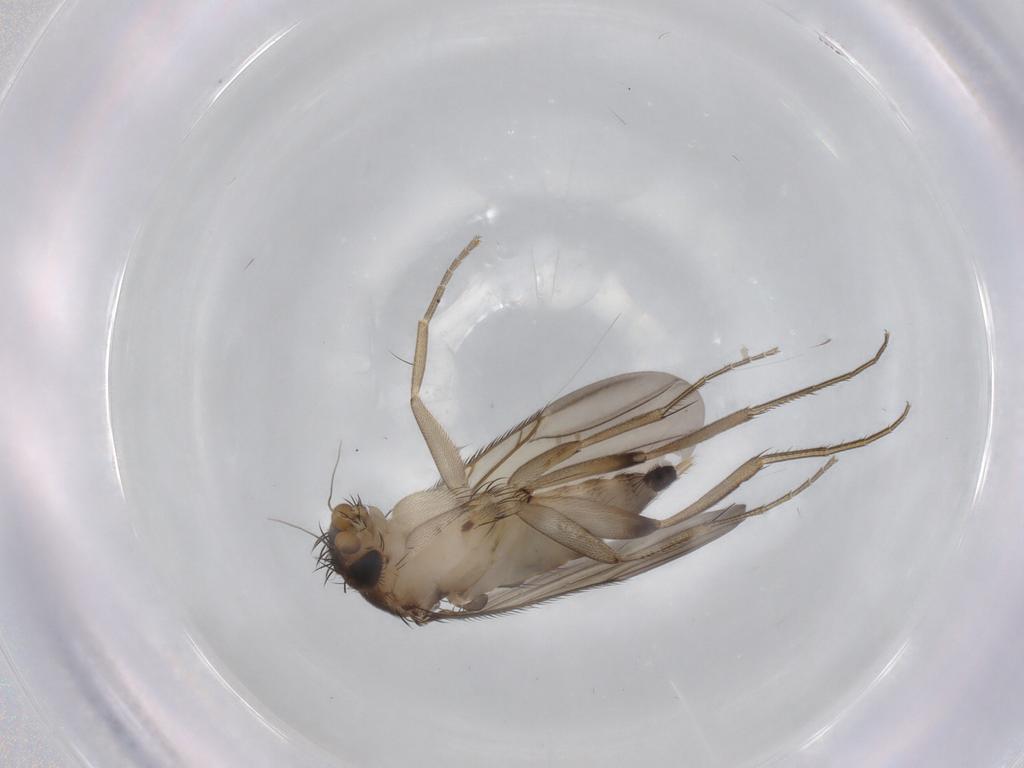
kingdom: Animalia
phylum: Arthropoda
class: Insecta
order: Diptera
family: Phoridae
